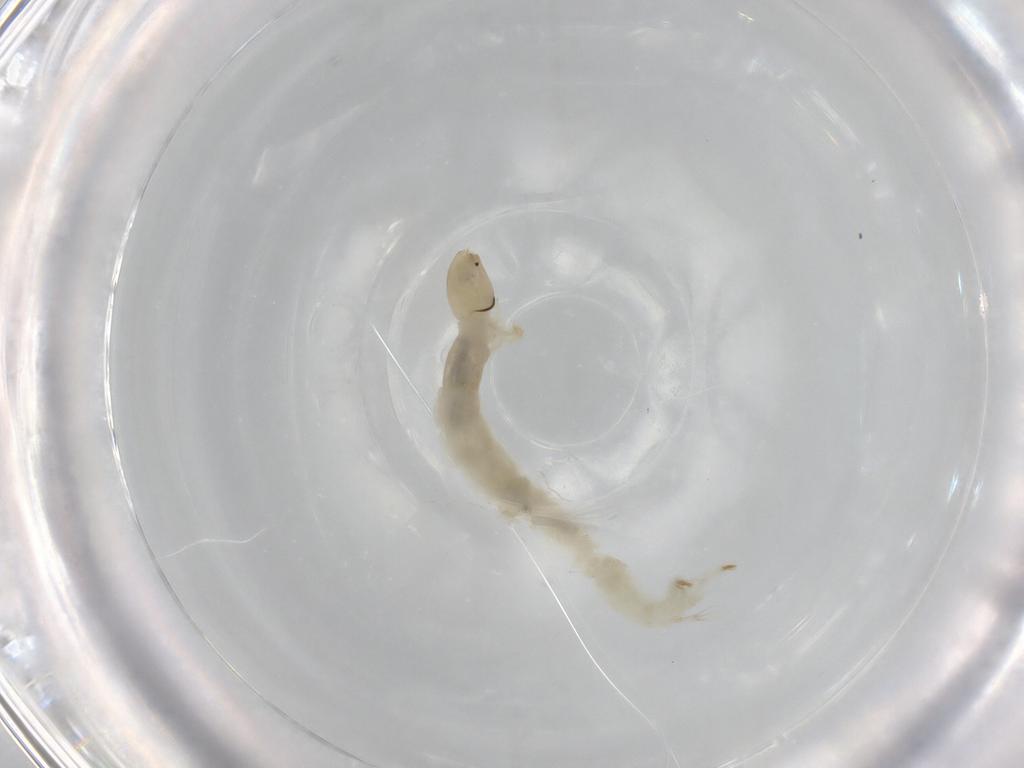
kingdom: Animalia
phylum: Arthropoda
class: Insecta
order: Diptera
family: Chironomidae
